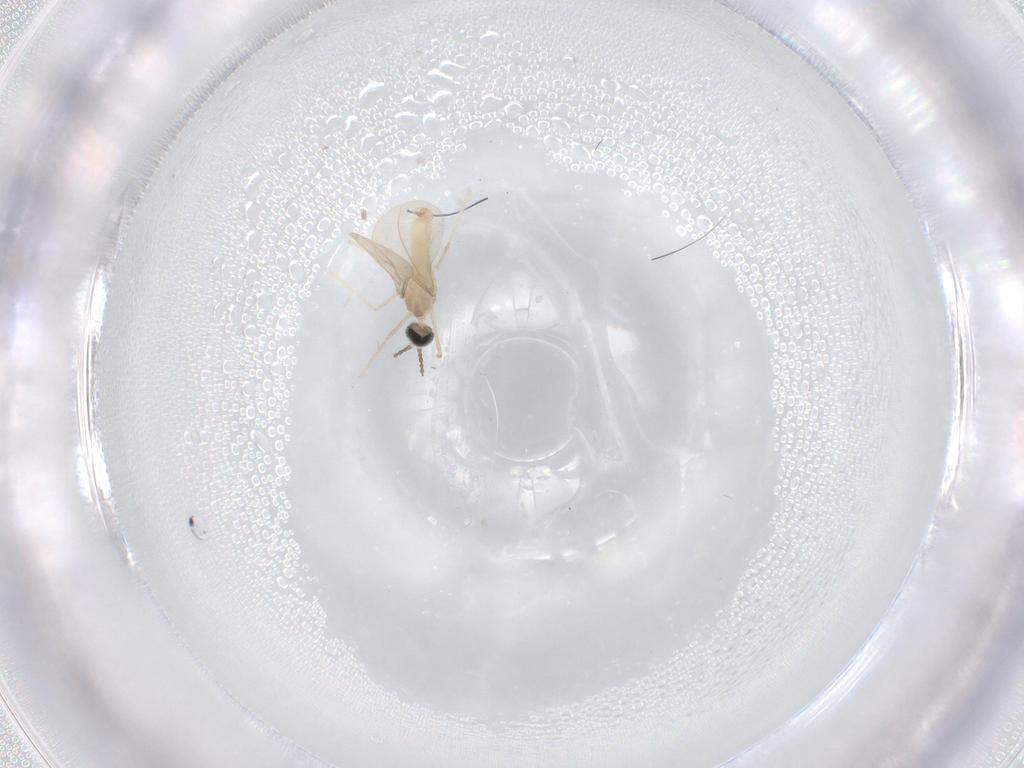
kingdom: Animalia
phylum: Arthropoda
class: Insecta
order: Diptera
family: Cecidomyiidae
